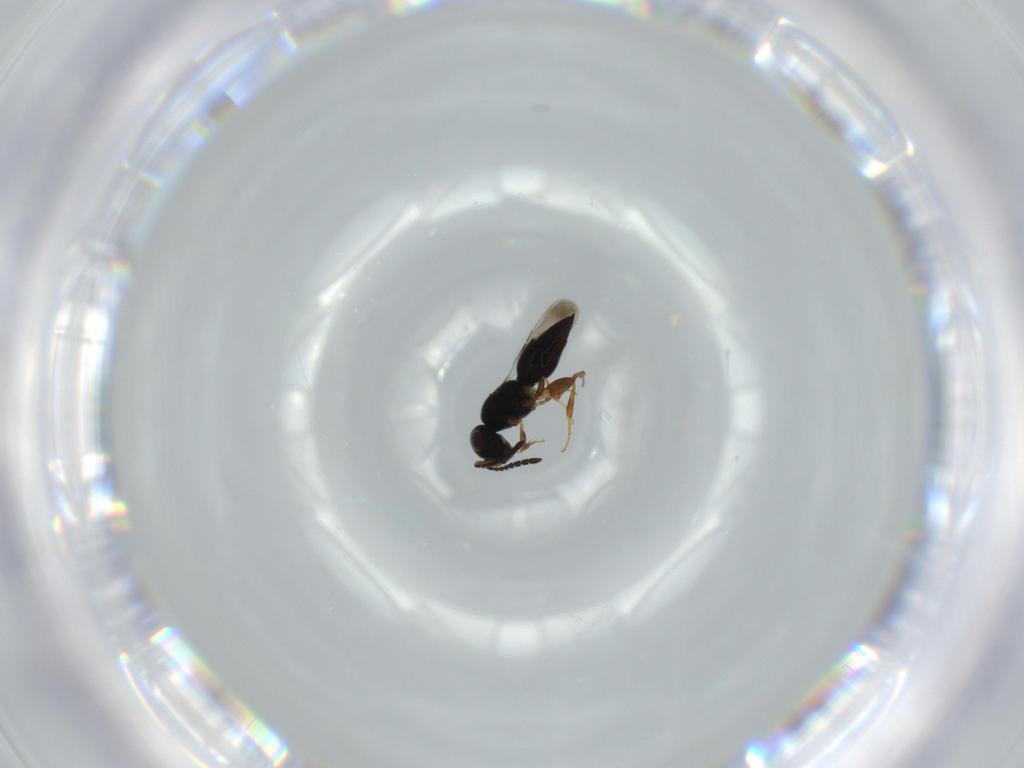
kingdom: Animalia
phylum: Arthropoda
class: Insecta
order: Hymenoptera
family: Ceraphronidae
